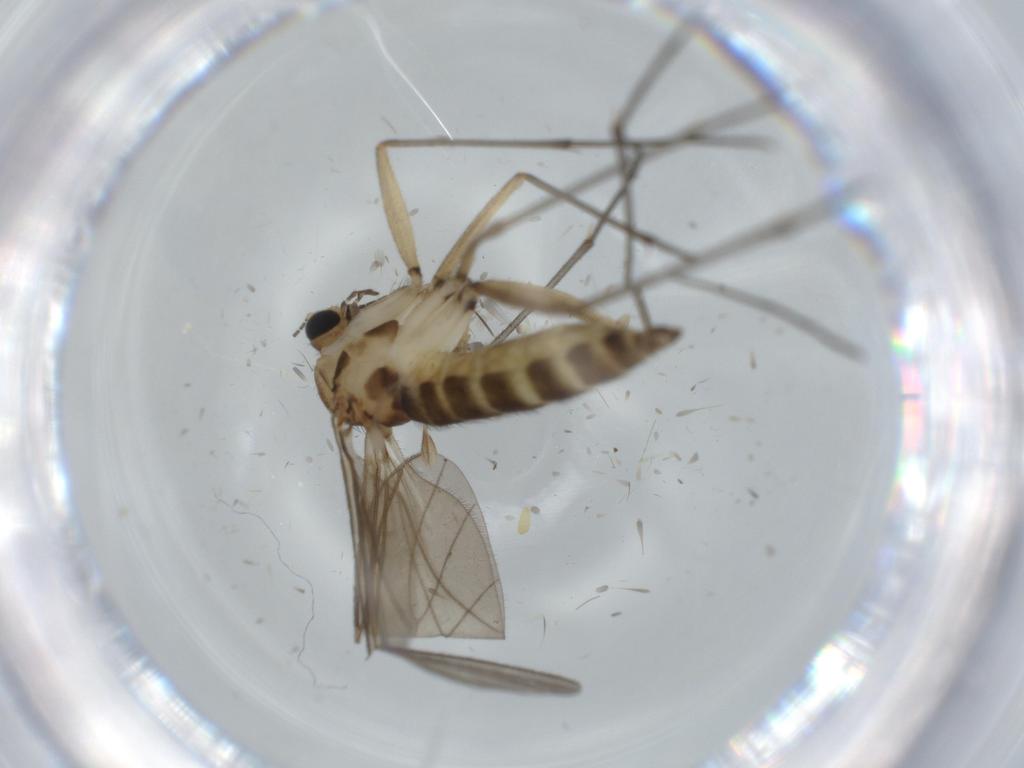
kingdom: Animalia
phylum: Arthropoda
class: Insecta
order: Diptera
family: Sciaridae
